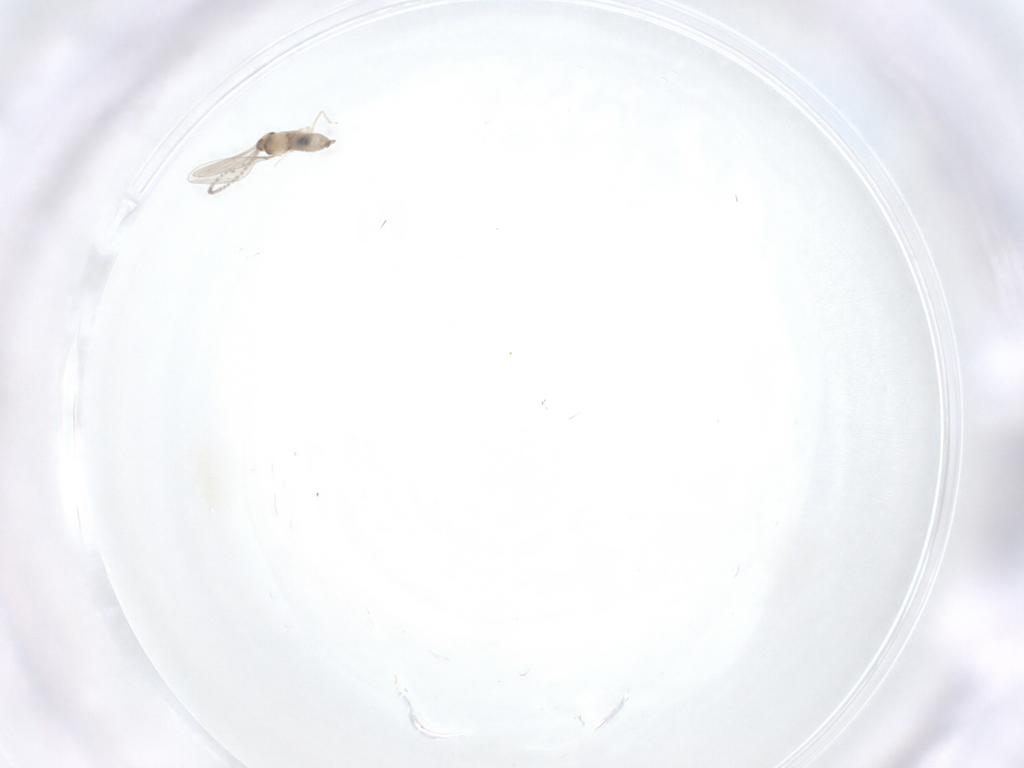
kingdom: Animalia
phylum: Arthropoda
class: Insecta
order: Diptera
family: Cecidomyiidae
